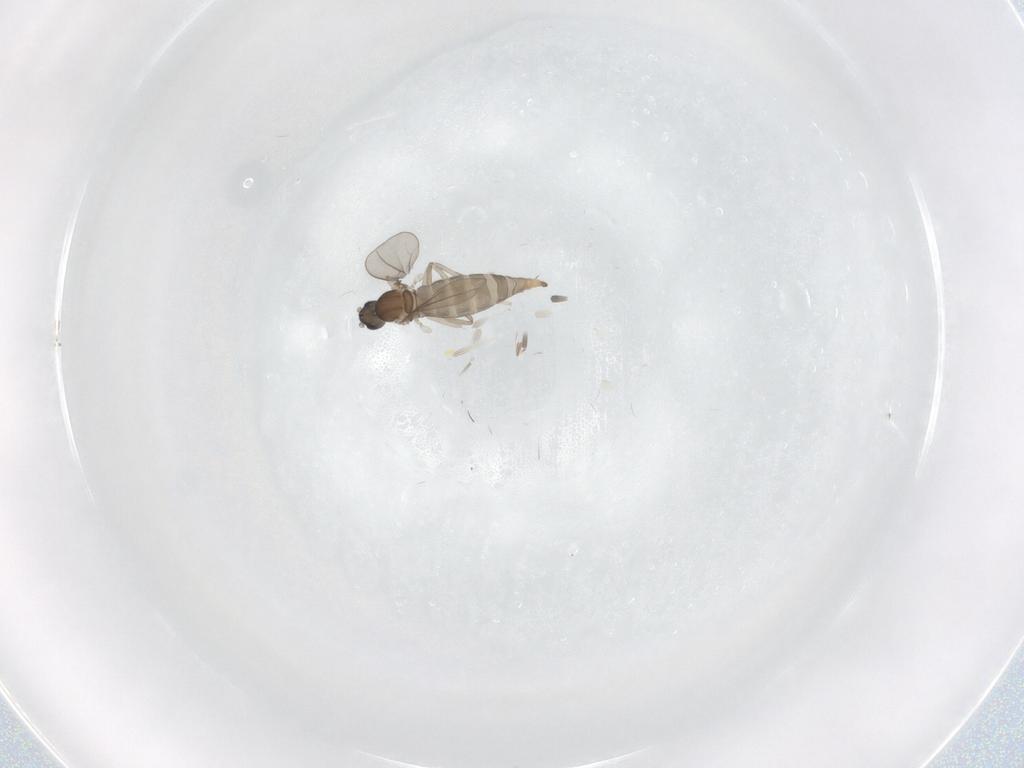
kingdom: Animalia
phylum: Arthropoda
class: Insecta
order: Diptera
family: Cecidomyiidae
